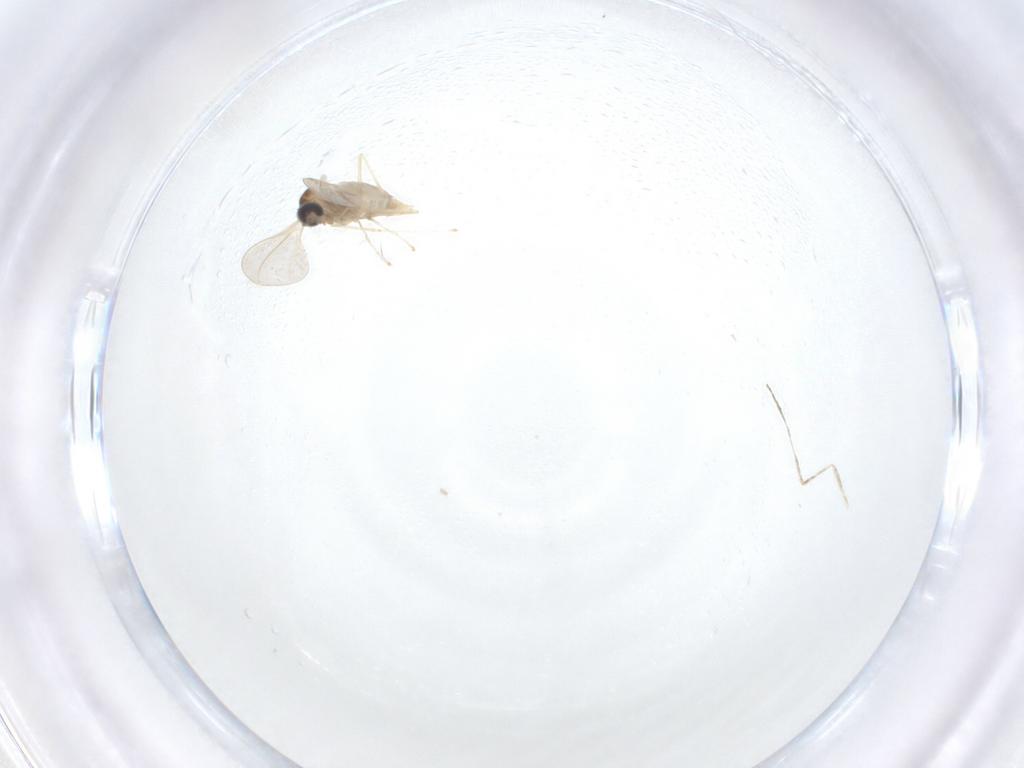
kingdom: Animalia
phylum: Arthropoda
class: Insecta
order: Diptera
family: Cecidomyiidae
